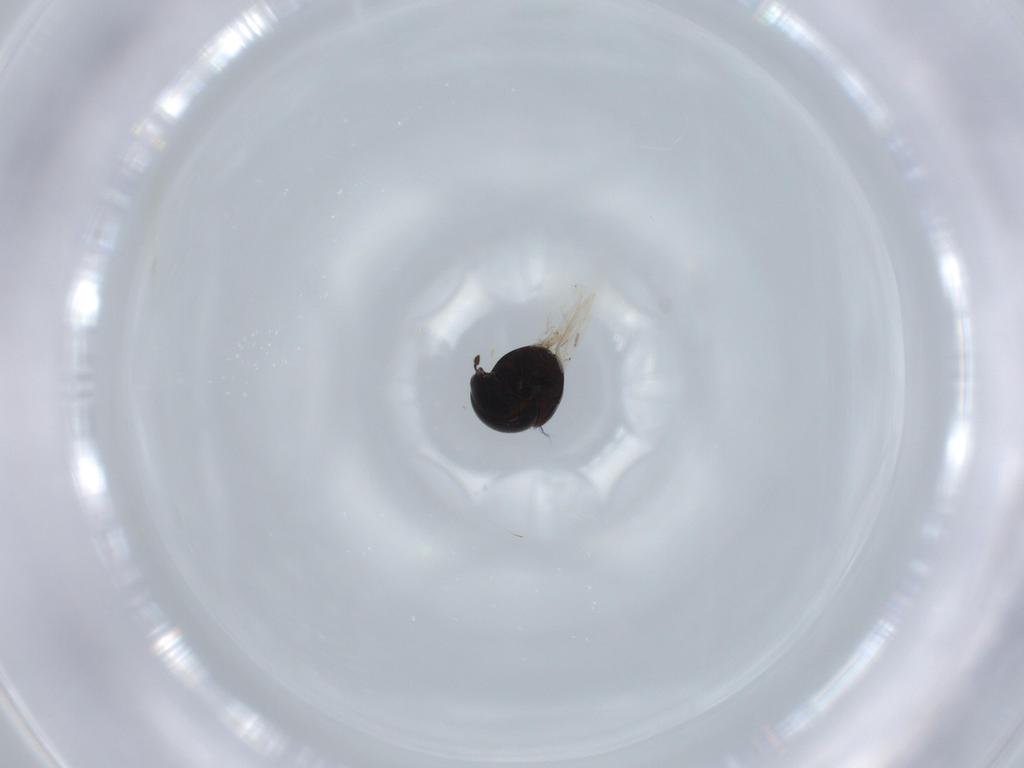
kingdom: Animalia
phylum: Arthropoda
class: Insecta
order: Coleoptera
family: Cybocephalidae
